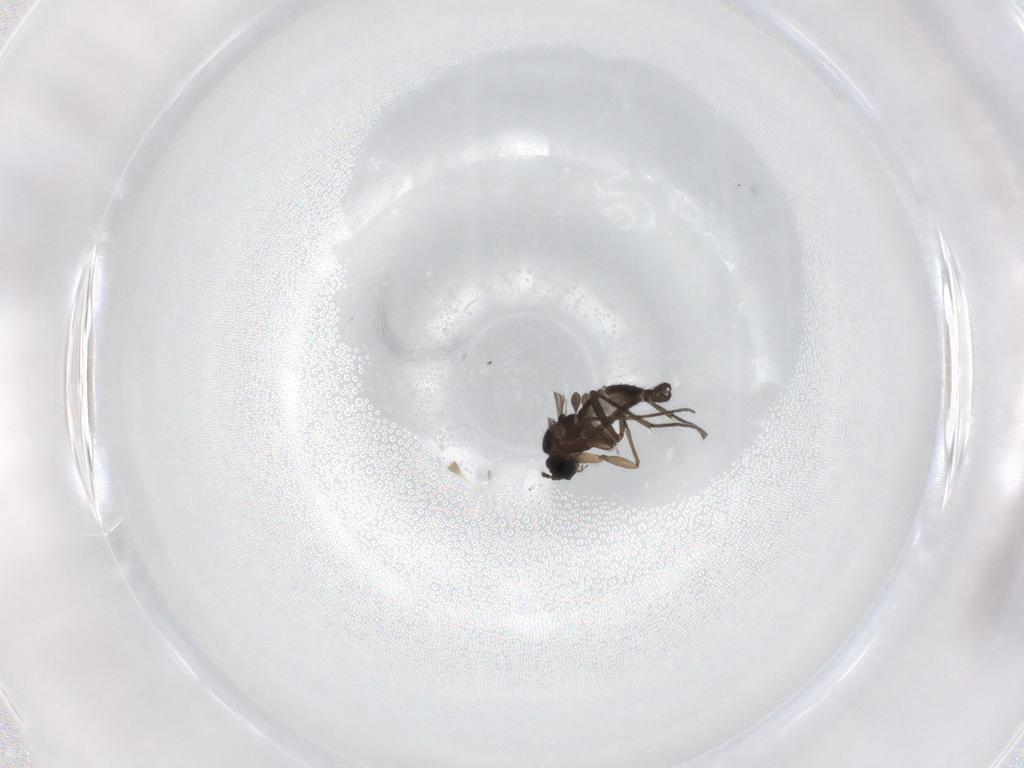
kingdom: Animalia
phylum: Arthropoda
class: Insecta
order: Diptera
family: Sciaridae
